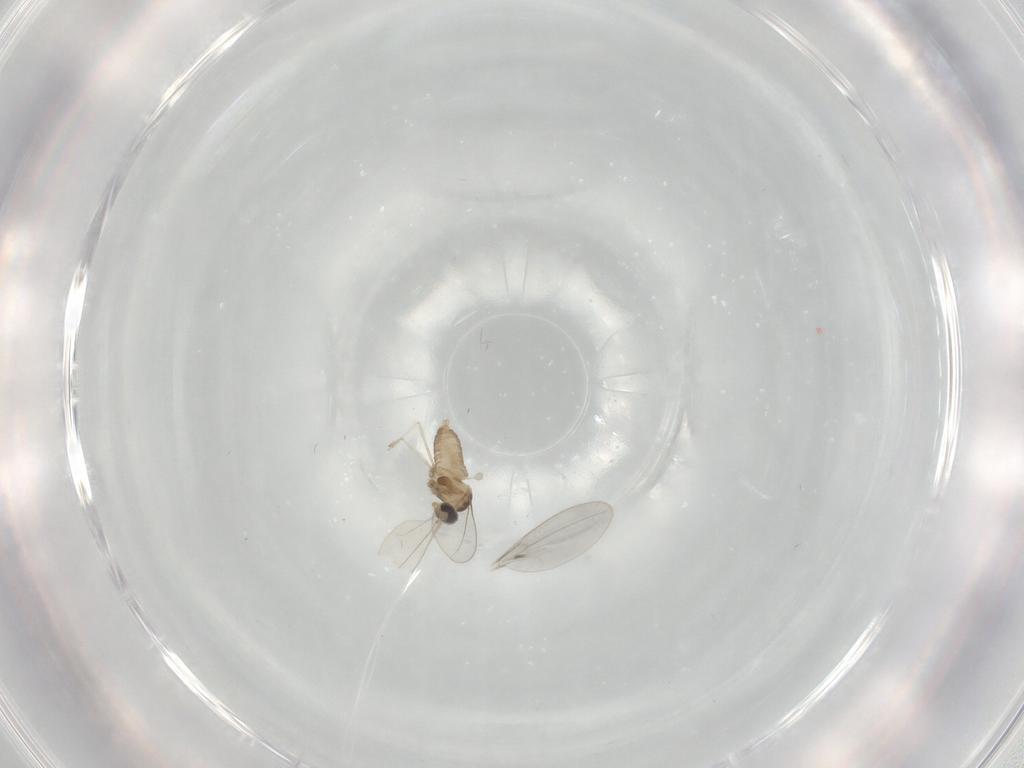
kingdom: Animalia
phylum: Arthropoda
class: Insecta
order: Diptera
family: Cecidomyiidae
